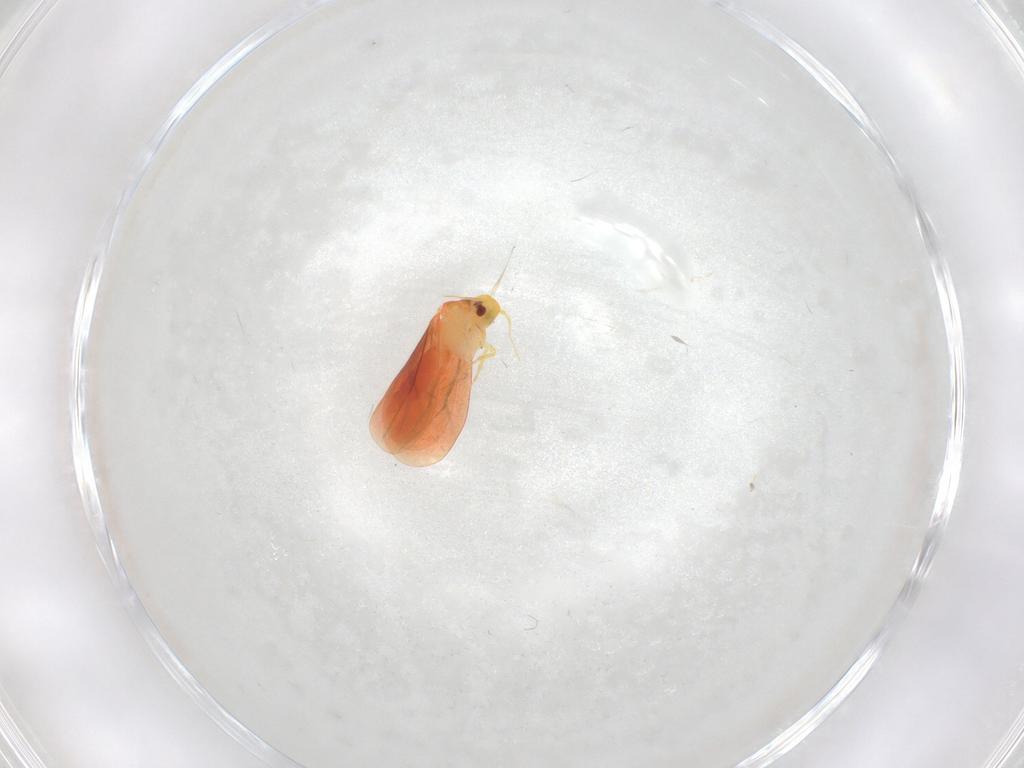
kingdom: Animalia
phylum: Arthropoda
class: Insecta
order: Hemiptera
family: Aleyrodidae
